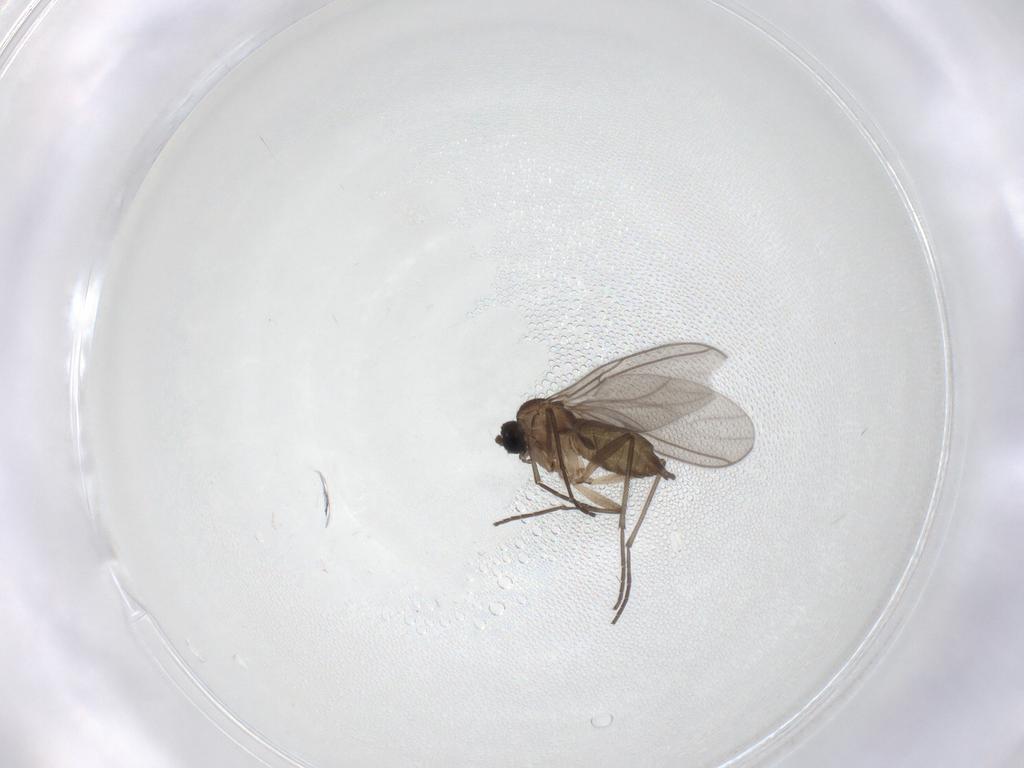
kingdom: Animalia
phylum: Arthropoda
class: Insecta
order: Diptera
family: Sciaridae
